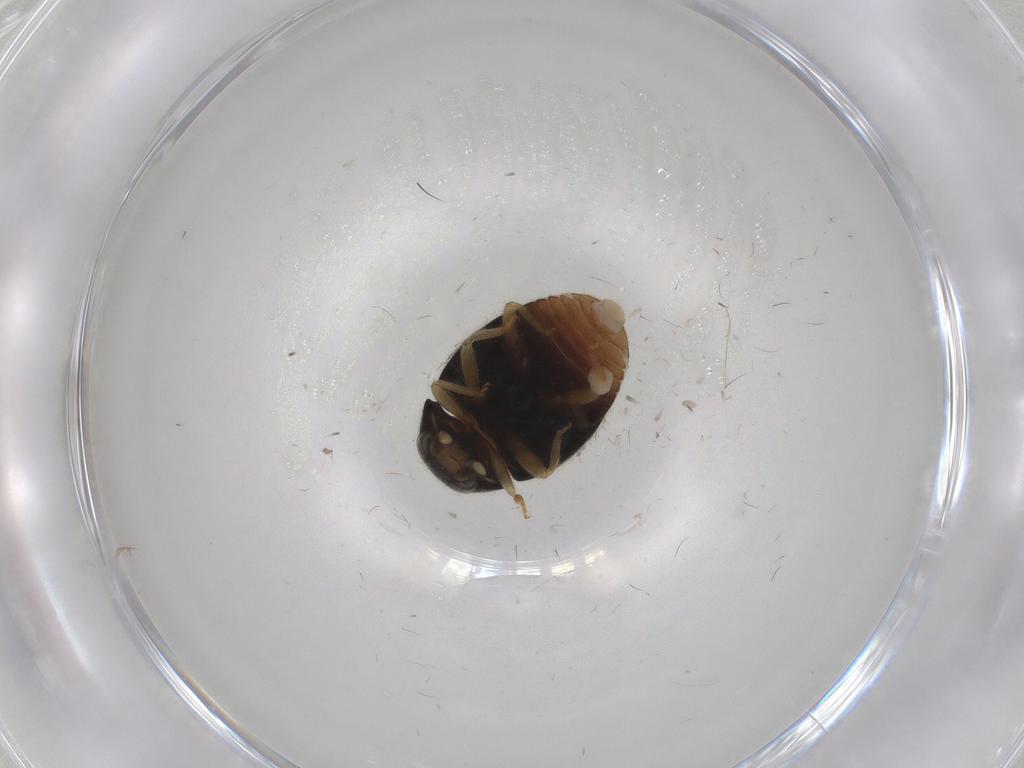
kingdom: Animalia
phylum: Arthropoda
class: Insecta
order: Coleoptera
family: Coccinellidae
